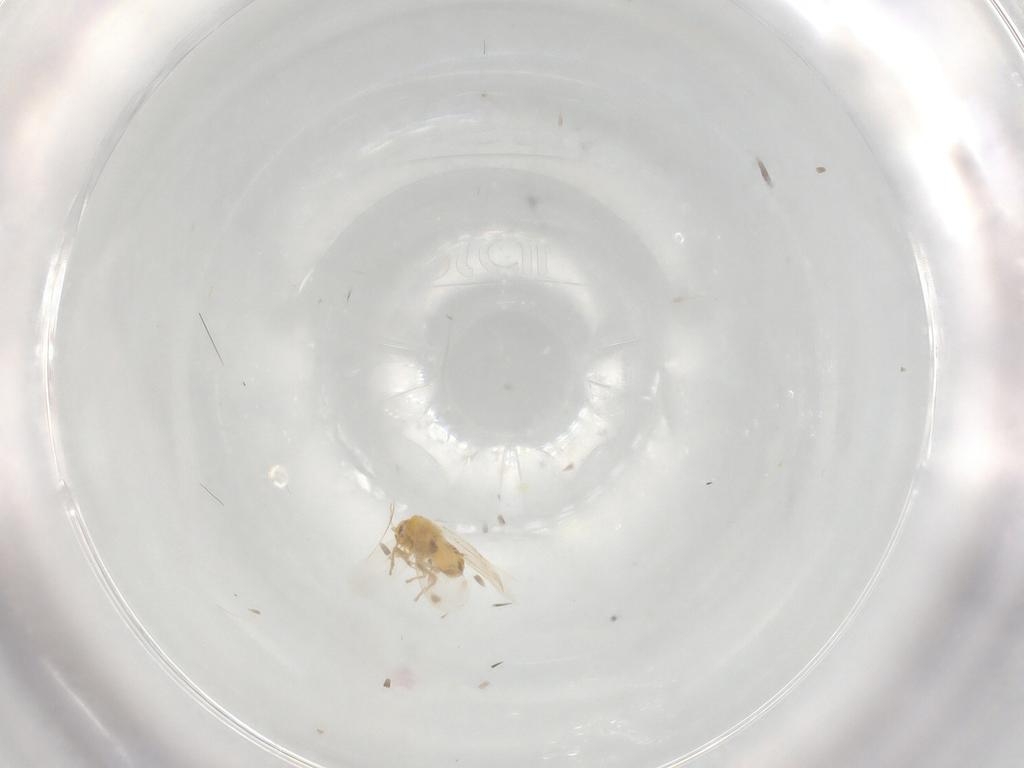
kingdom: Animalia
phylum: Arthropoda
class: Insecta
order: Hemiptera
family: Aleyrodidae
